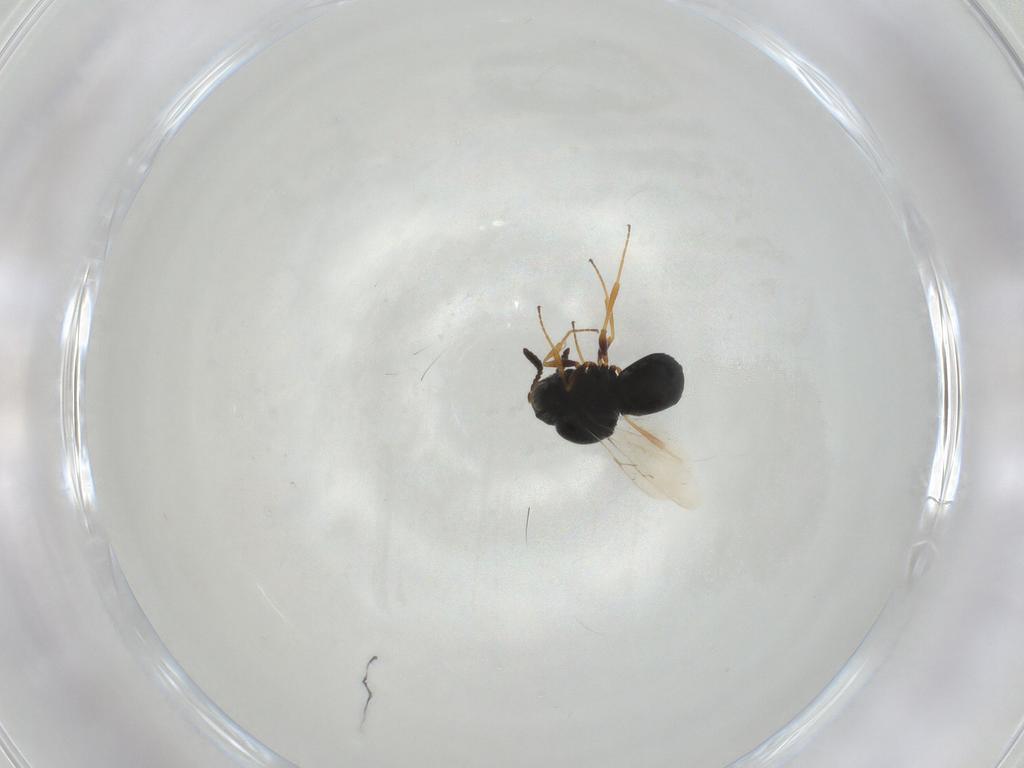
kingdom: Animalia
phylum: Arthropoda
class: Insecta
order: Hymenoptera
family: Scelionidae
